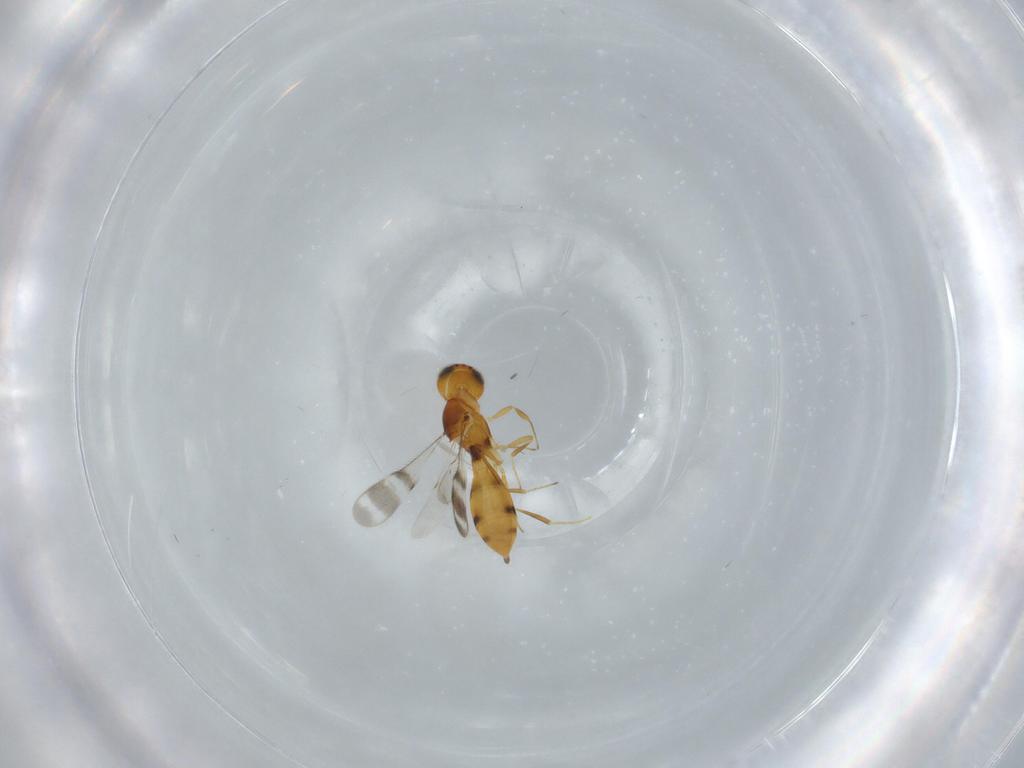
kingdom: Animalia
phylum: Arthropoda
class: Insecta
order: Hymenoptera
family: Scelionidae
